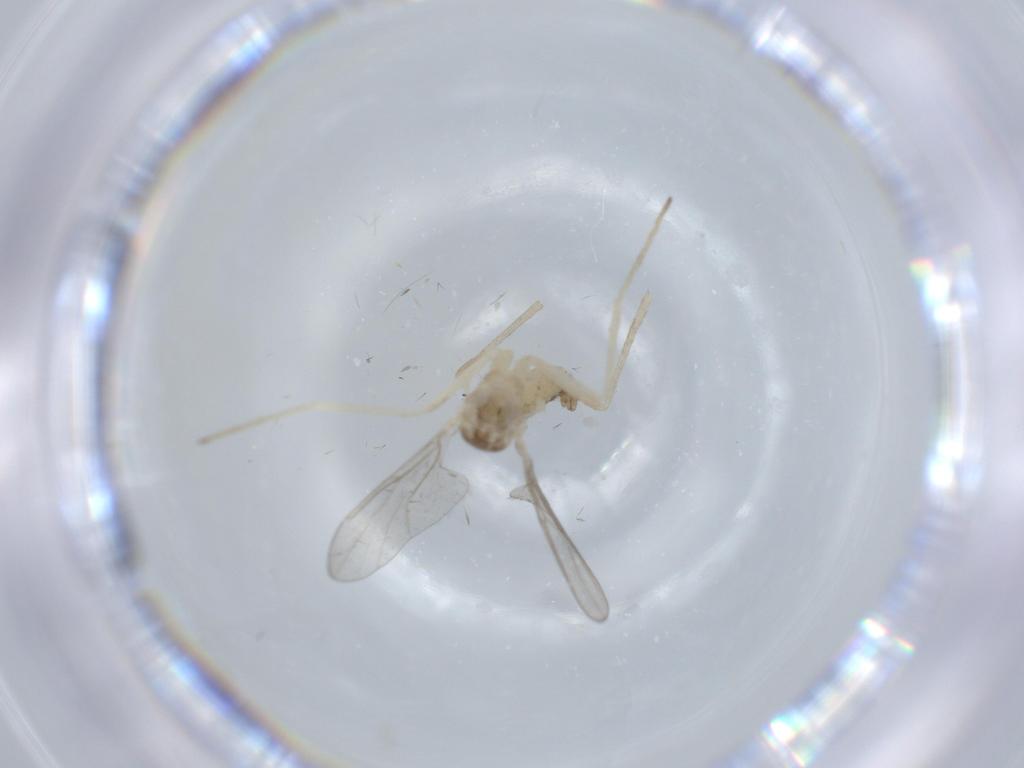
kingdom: Animalia
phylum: Arthropoda
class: Insecta
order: Diptera
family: Cecidomyiidae
